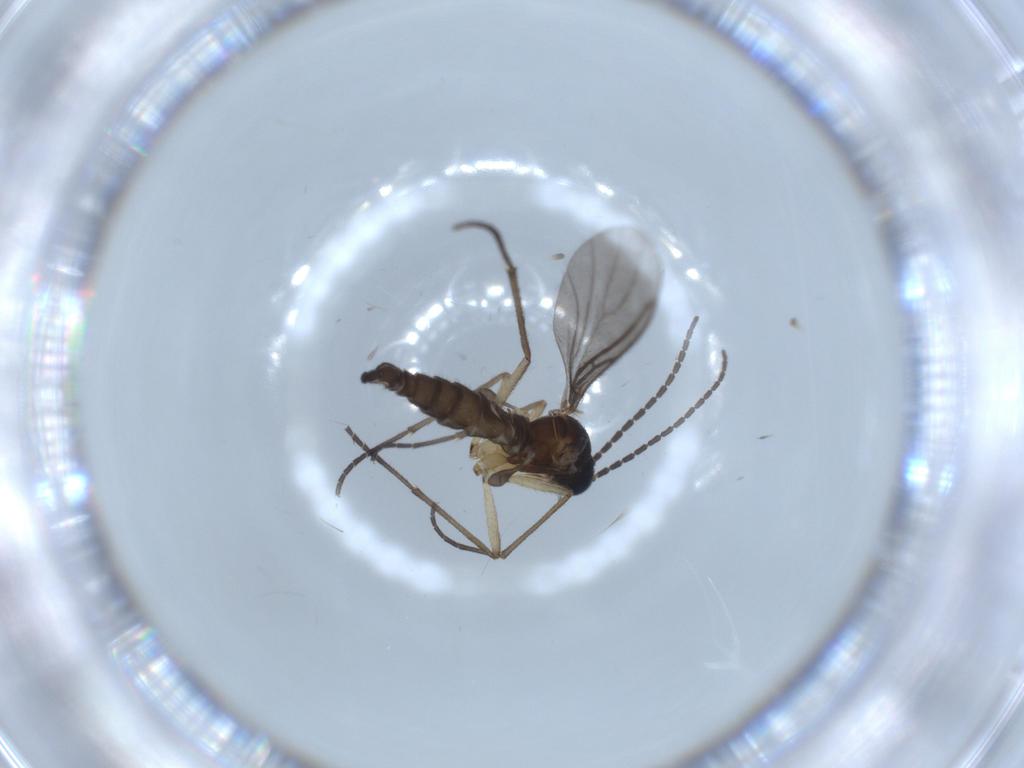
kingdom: Animalia
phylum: Arthropoda
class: Insecta
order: Diptera
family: Sciaridae
